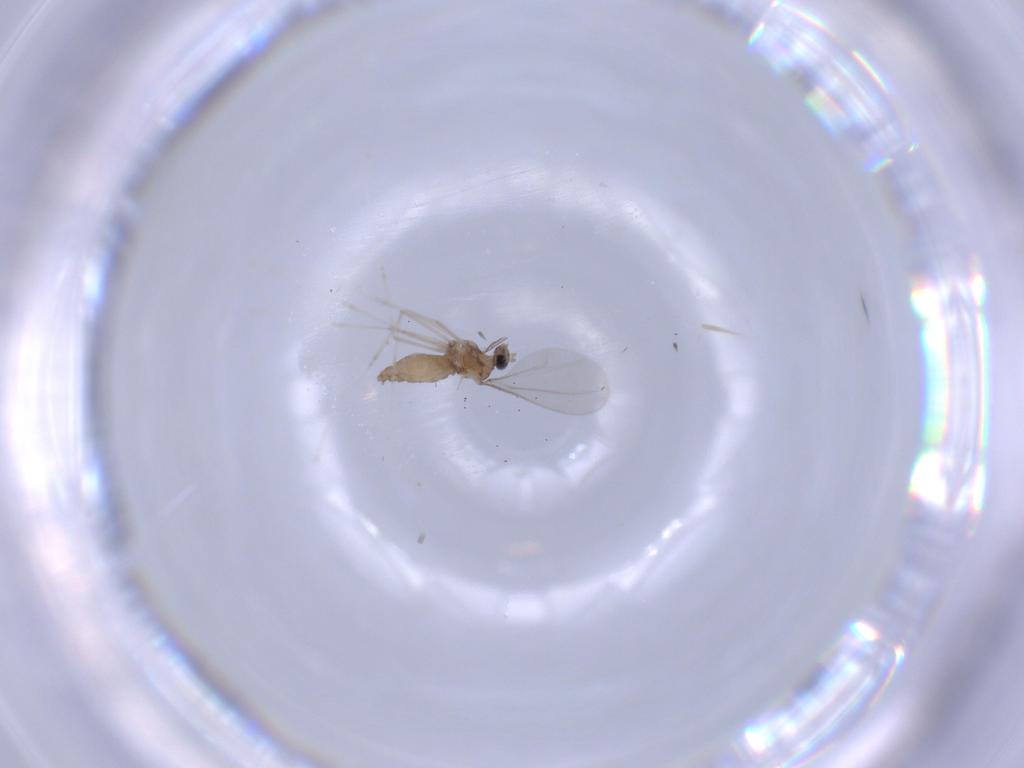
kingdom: Animalia
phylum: Arthropoda
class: Insecta
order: Diptera
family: Cecidomyiidae
